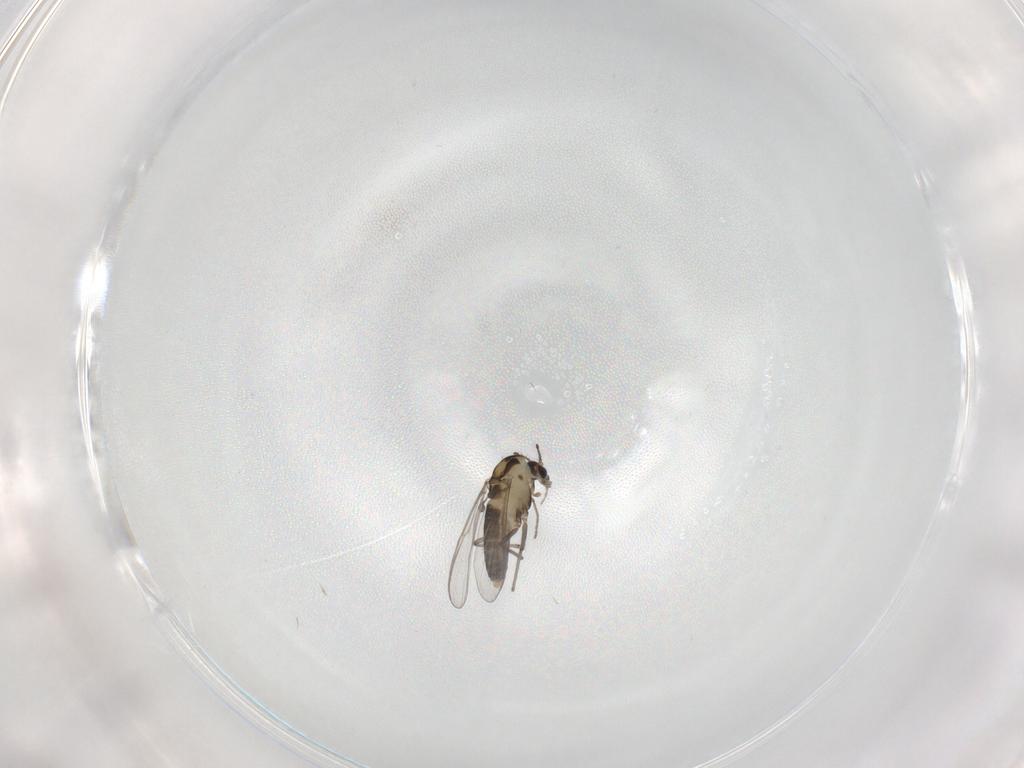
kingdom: Animalia
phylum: Arthropoda
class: Insecta
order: Diptera
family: Chironomidae
